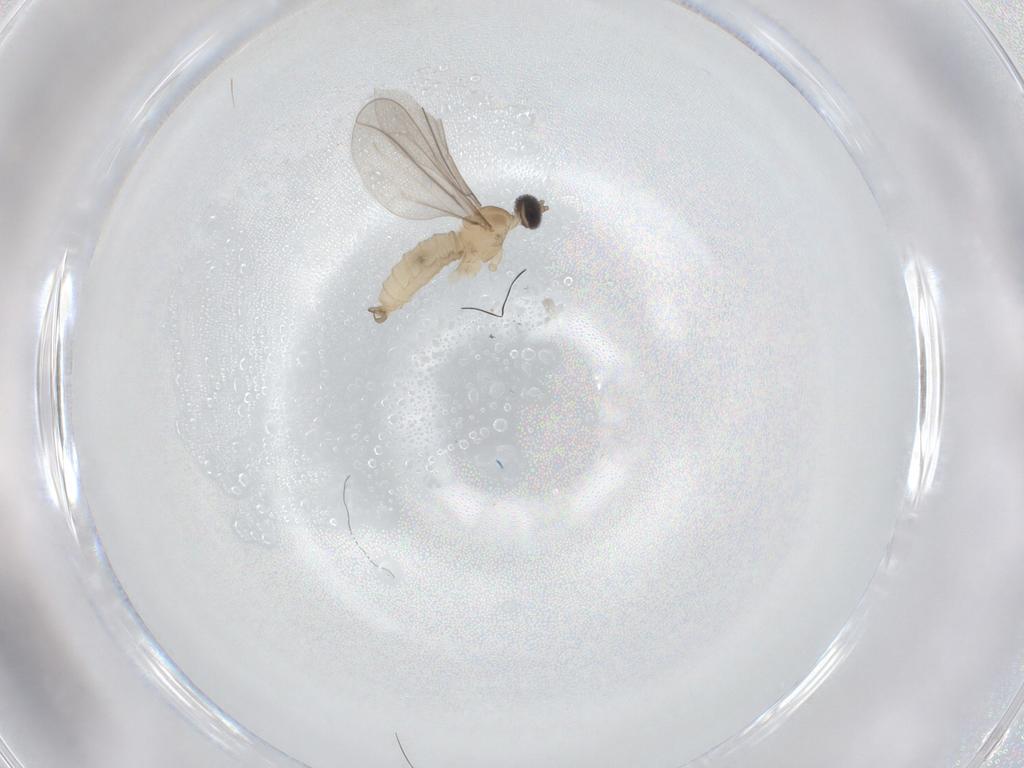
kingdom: Animalia
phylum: Arthropoda
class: Insecta
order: Diptera
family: Cecidomyiidae
